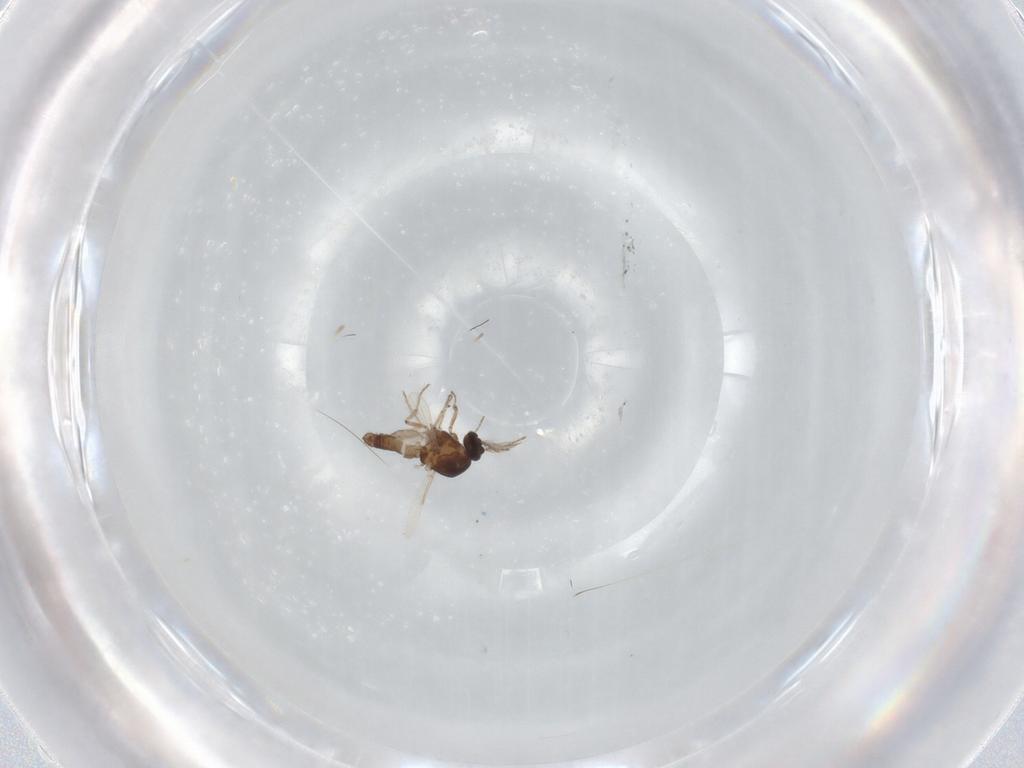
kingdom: Animalia
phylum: Arthropoda
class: Insecta
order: Diptera
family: Ceratopogonidae
